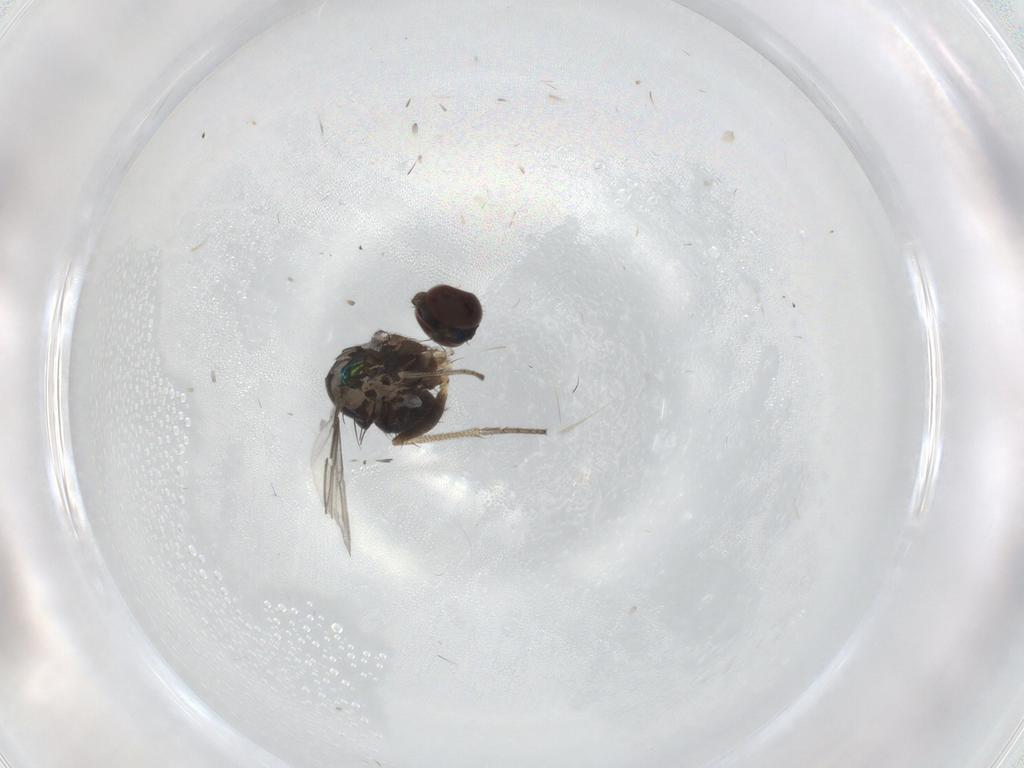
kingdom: Animalia
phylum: Arthropoda
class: Insecta
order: Diptera
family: Dolichopodidae
